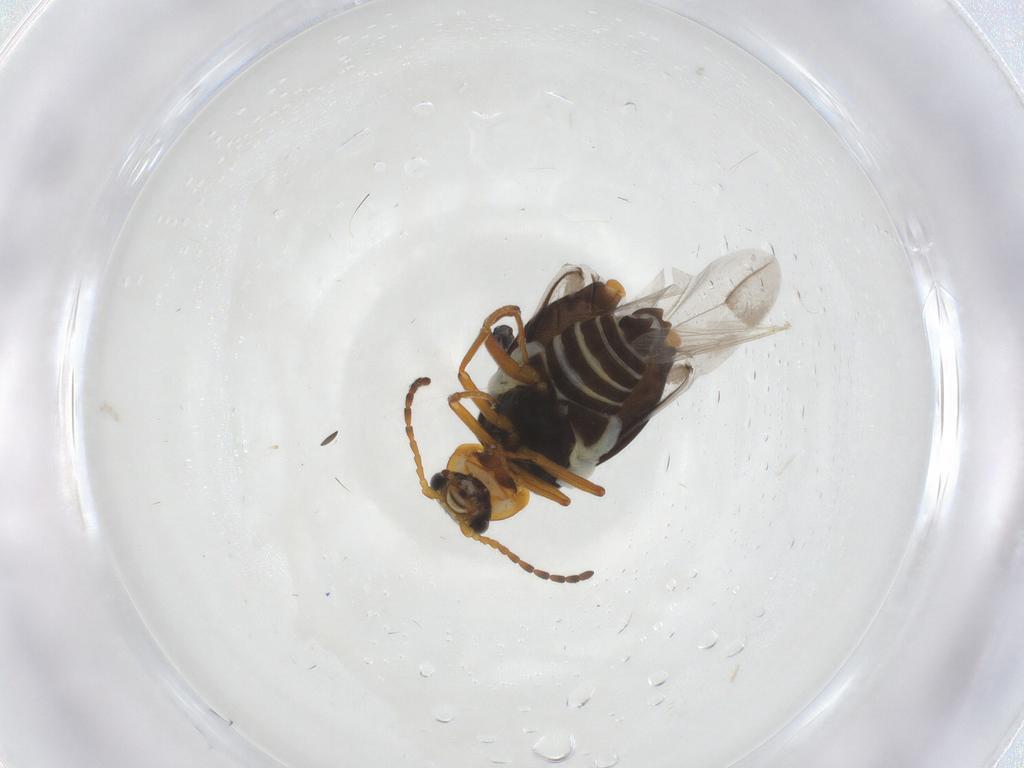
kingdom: Animalia
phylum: Arthropoda
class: Insecta
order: Coleoptera
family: Melyridae
